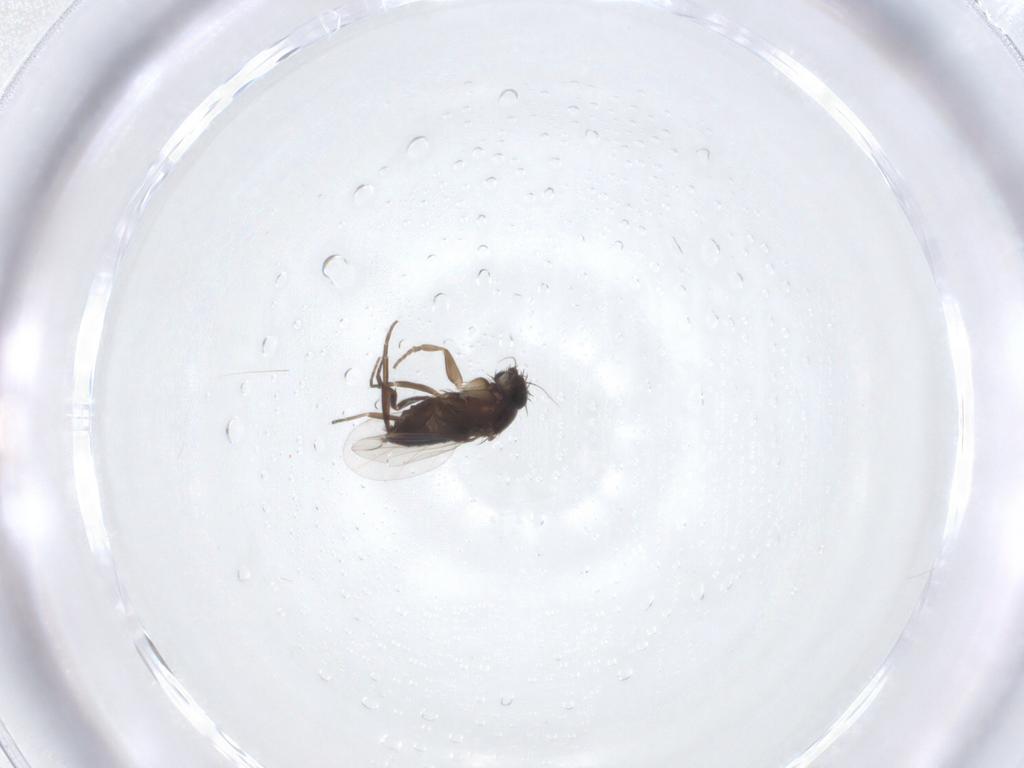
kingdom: Animalia
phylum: Arthropoda
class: Insecta
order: Diptera
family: Phoridae
